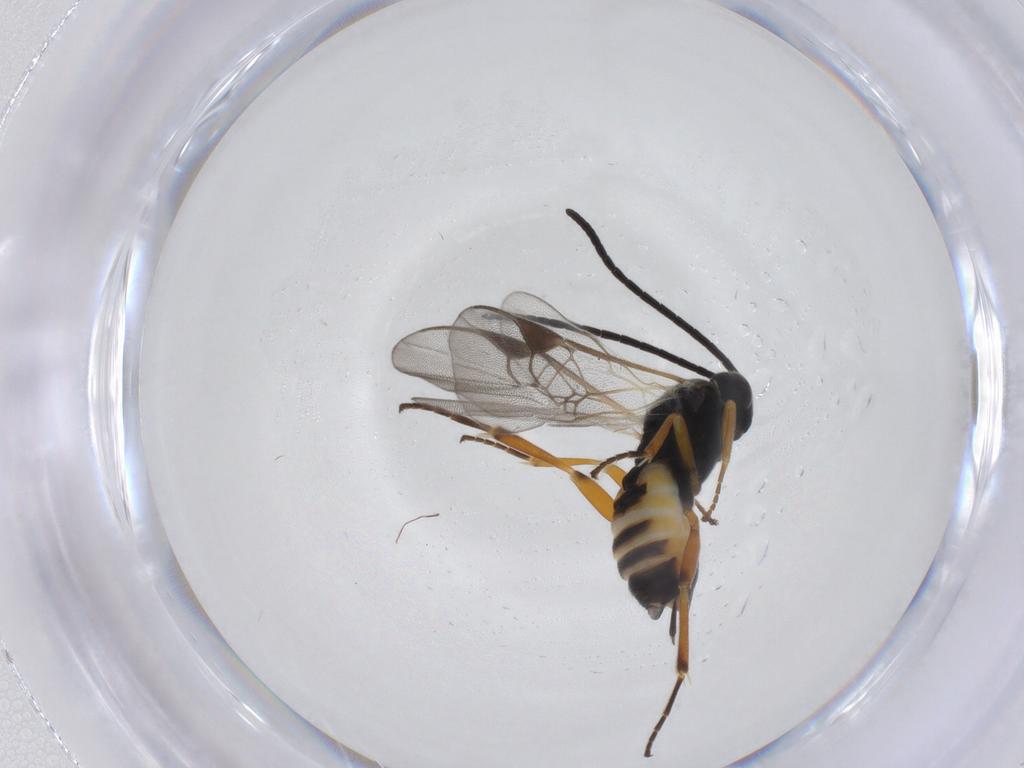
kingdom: Animalia
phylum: Arthropoda
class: Insecta
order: Hymenoptera
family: Braconidae
